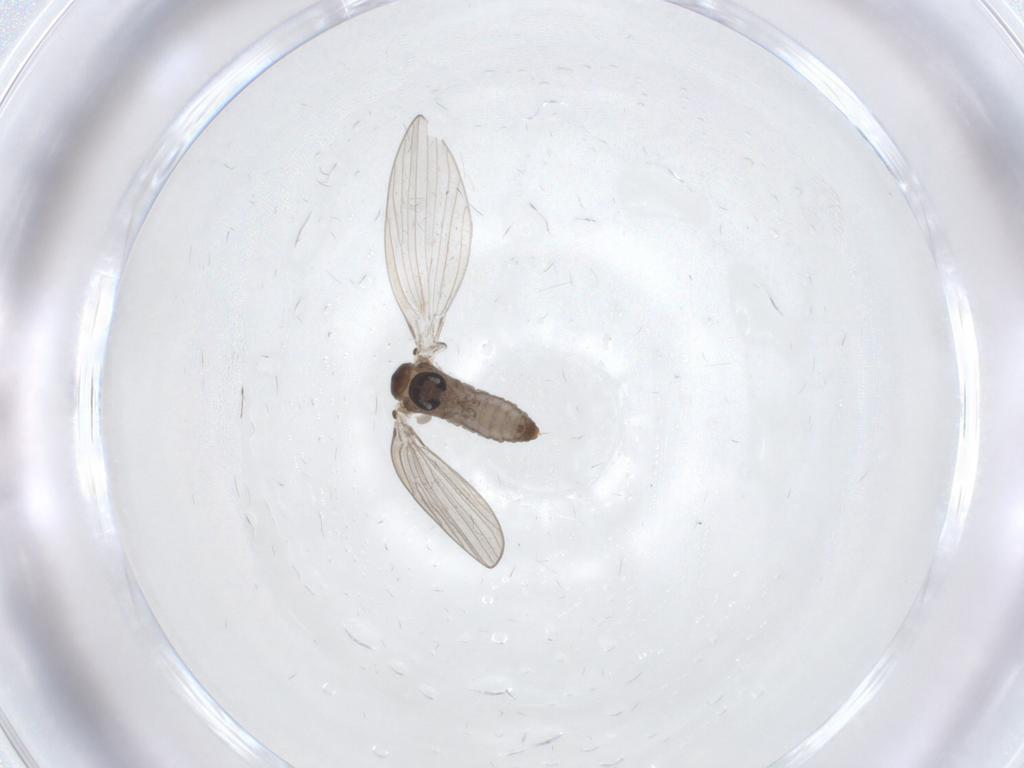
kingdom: Animalia
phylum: Arthropoda
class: Insecta
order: Diptera
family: Psychodidae
